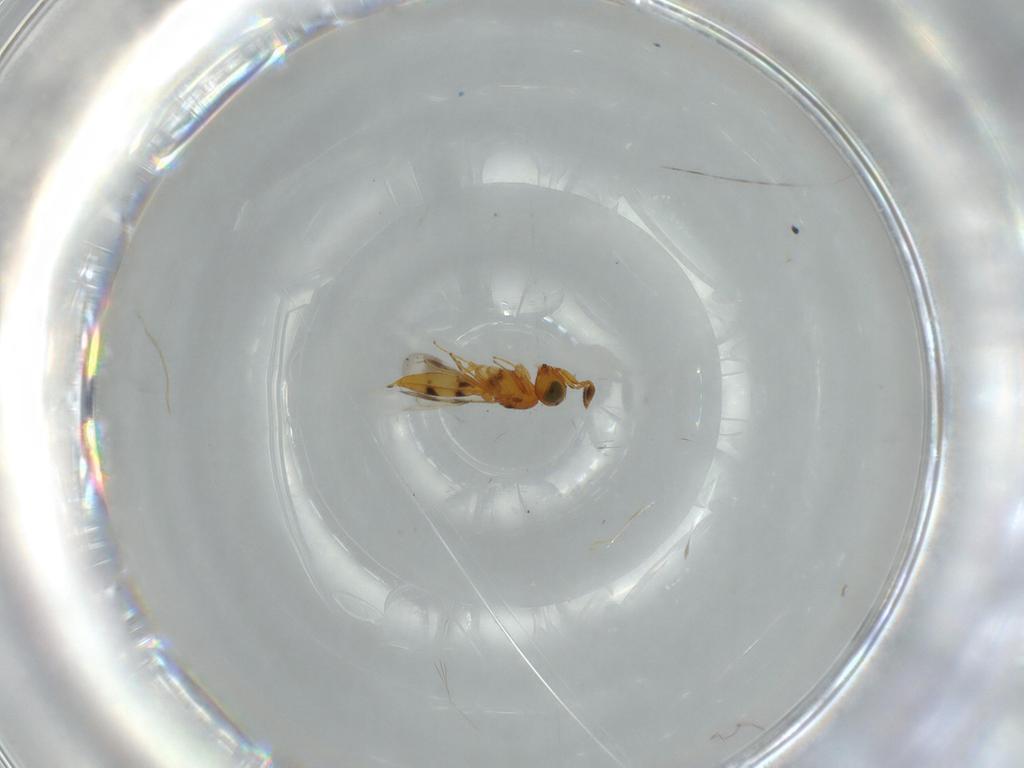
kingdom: Animalia
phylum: Arthropoda
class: Insecta
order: Hymenoptera
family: Scelionidae
